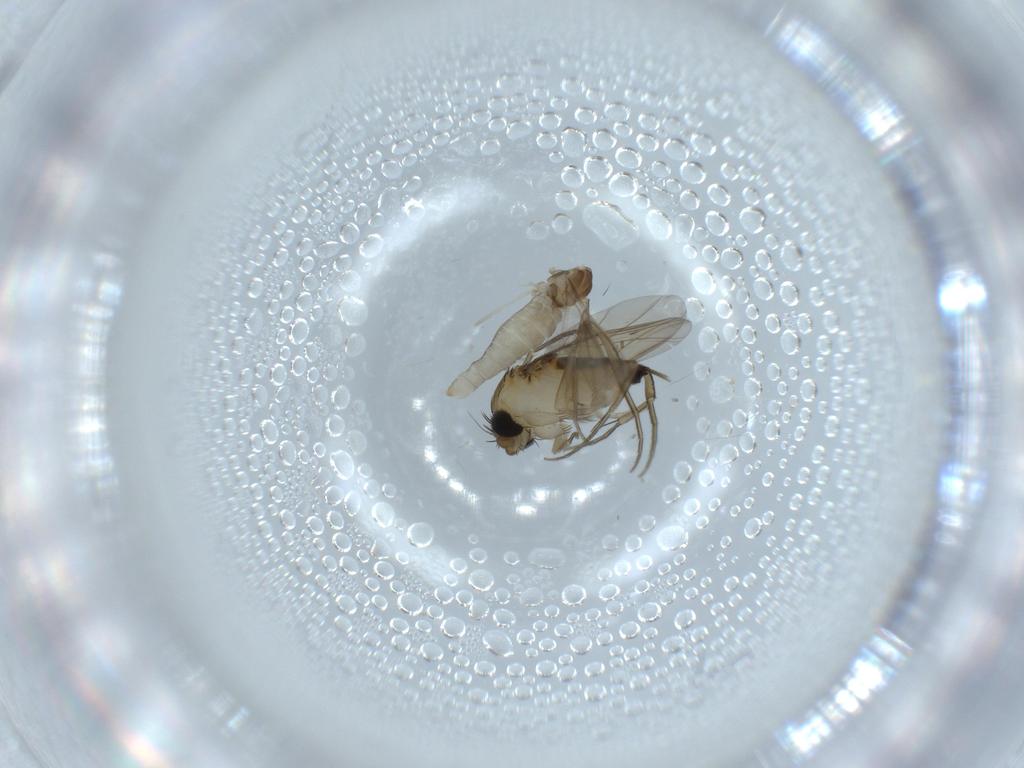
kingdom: Animalia
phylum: Arthropoda
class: Insecta
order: Diptera
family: Cecidomyiidae
